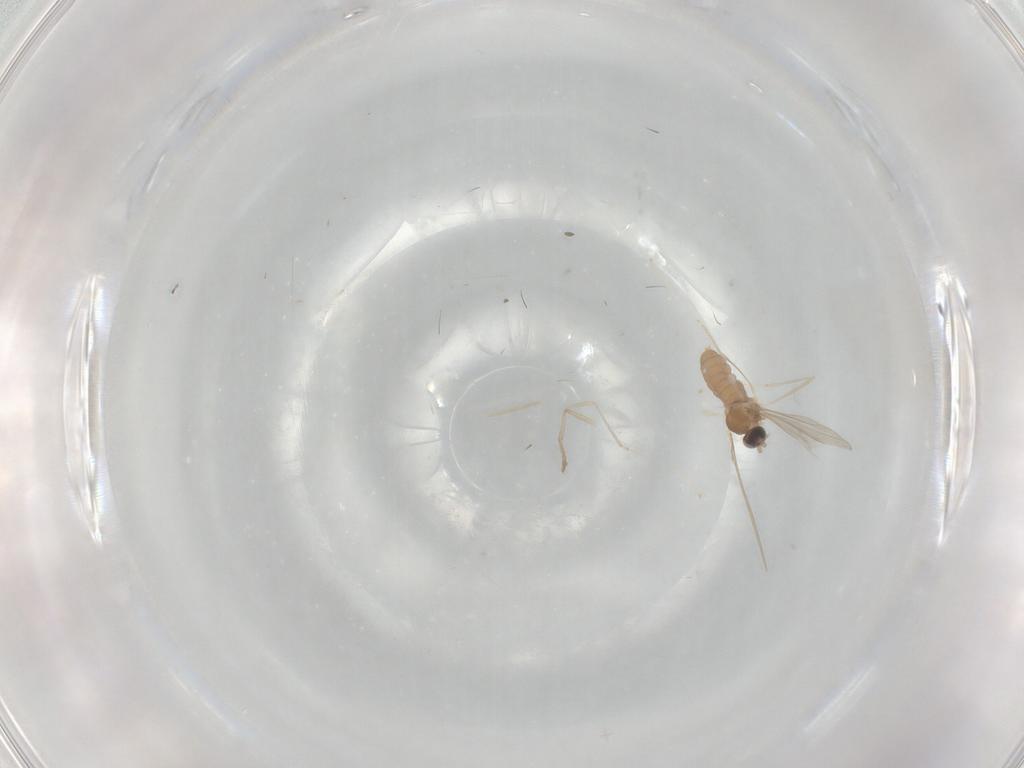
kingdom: Animalia
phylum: Arthropoda
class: Insecta
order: Diptera
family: Cecidomyiidae
